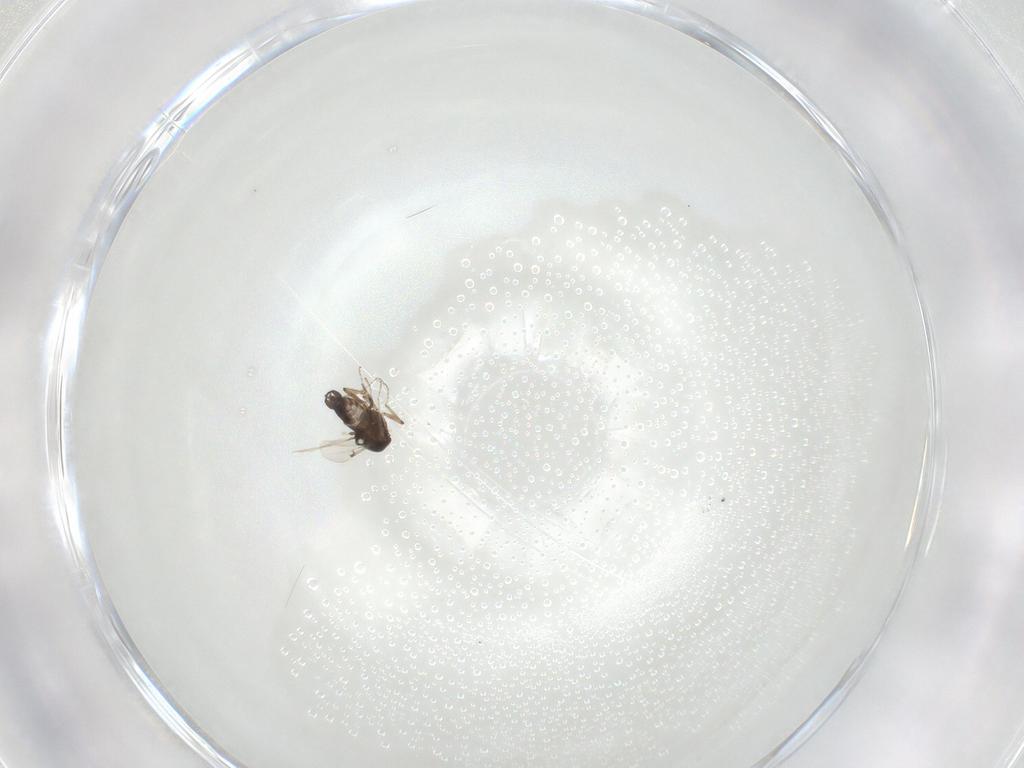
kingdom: Animalia
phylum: Arthropoda
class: Insecta
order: Diptera
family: Ceratopogonidae
